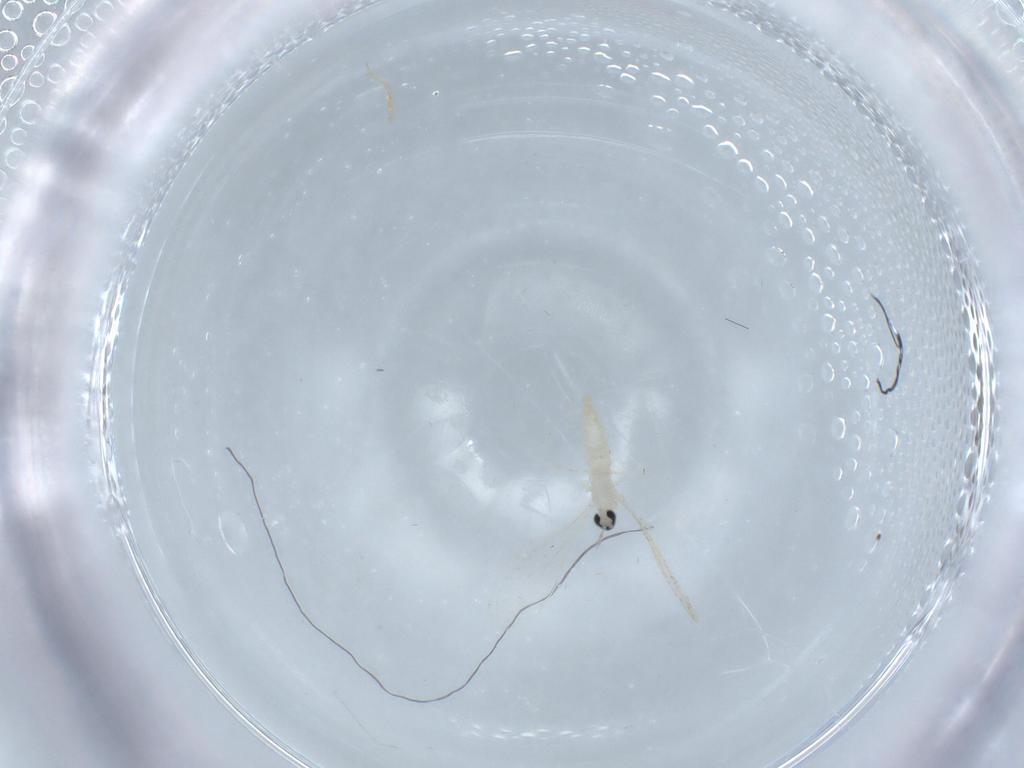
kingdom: Animalia
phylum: Arthropoda
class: Insecta
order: Diptera
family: Cecidomyiidae
